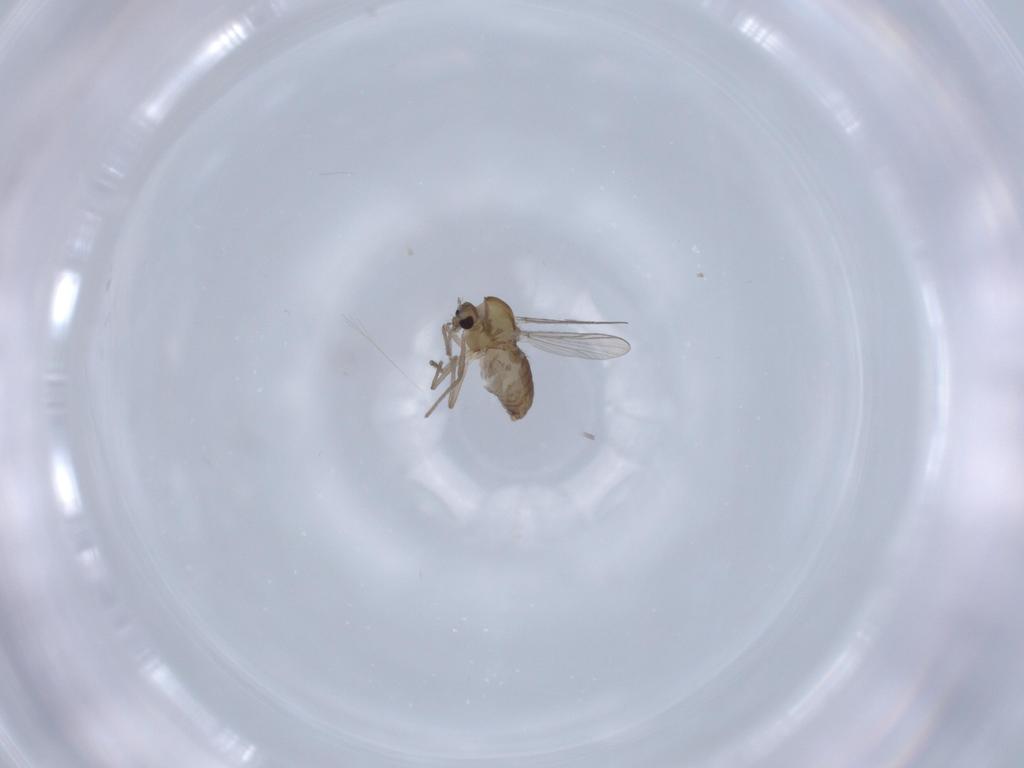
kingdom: Animalia
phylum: Arthropoda
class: Insecta
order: Diptera
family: Chironomidae
